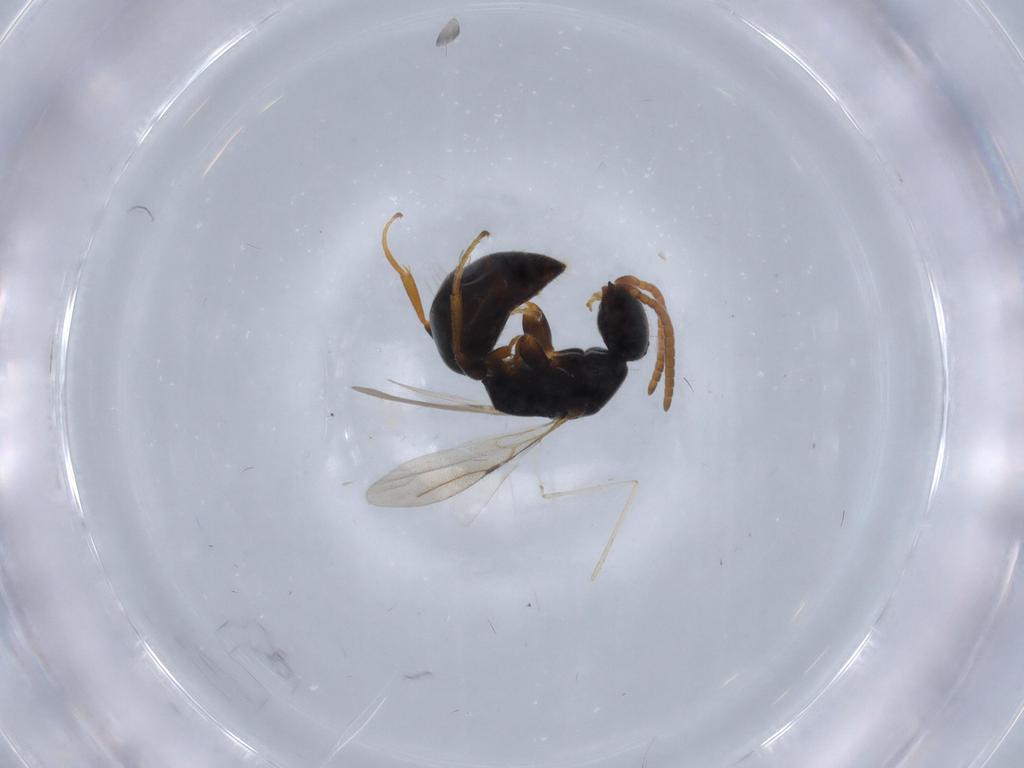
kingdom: Animalia
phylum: Arthropoda
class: Insecta
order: Hymenoptera
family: Bethylidae
